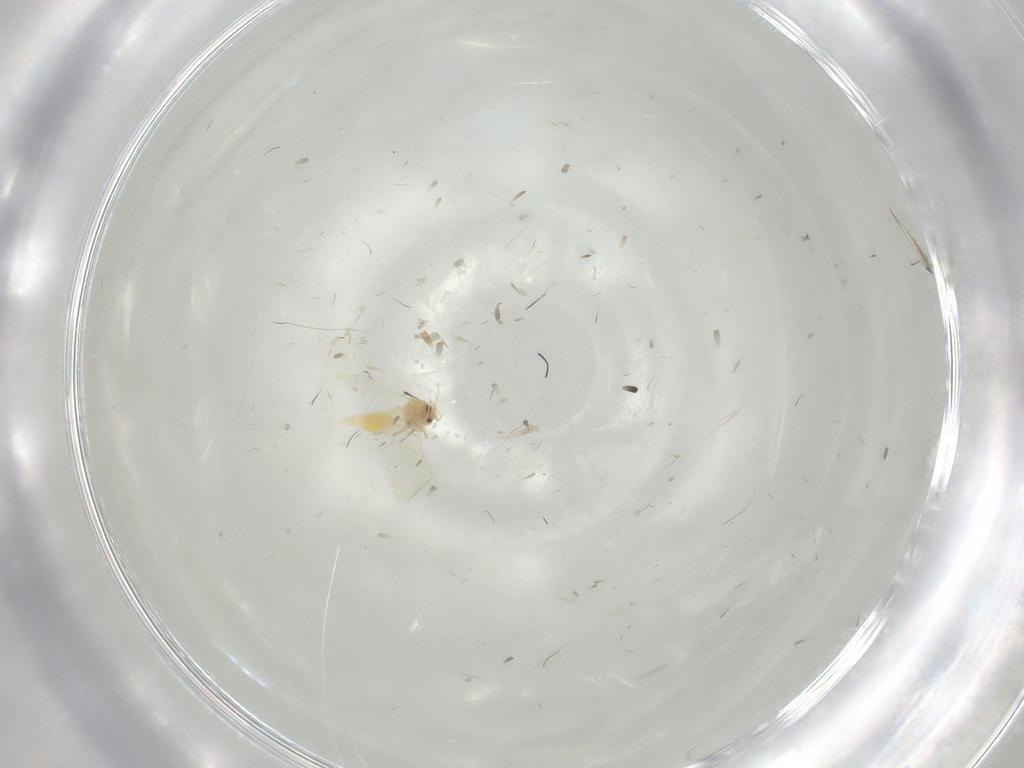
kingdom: Animalia
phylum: Arthropoda
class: Insecta
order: Hemiptera
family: Aleyrodidae
